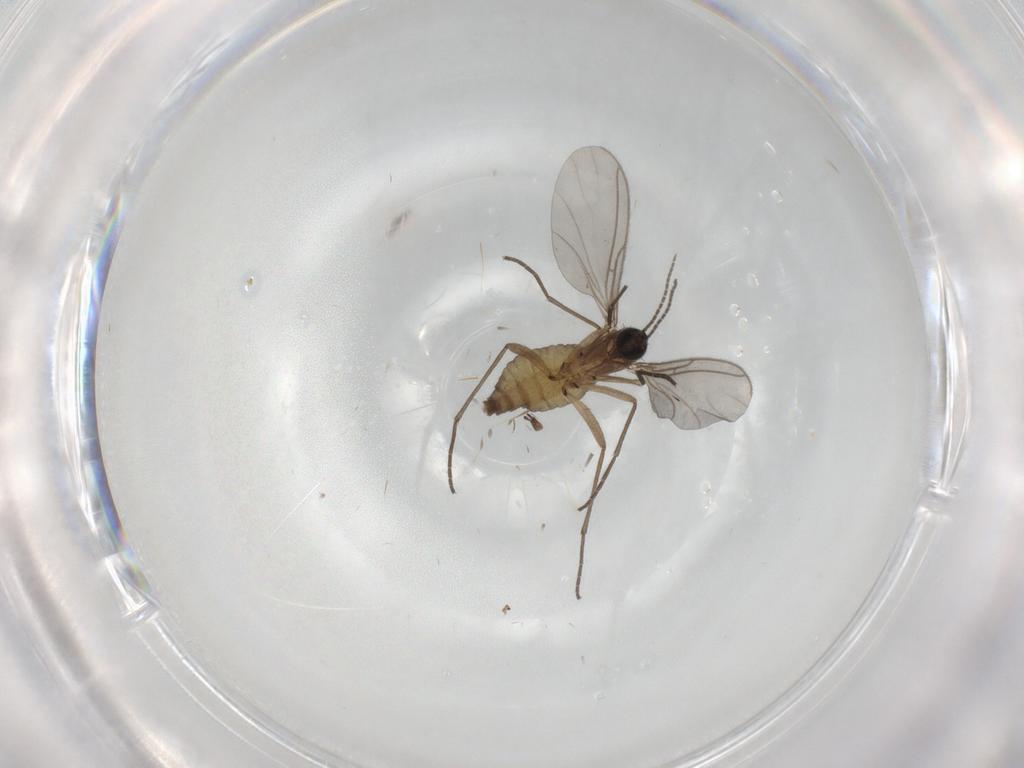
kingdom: Animalia
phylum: Arthropoda
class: Insecta
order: Diptera
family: Sciaridae
